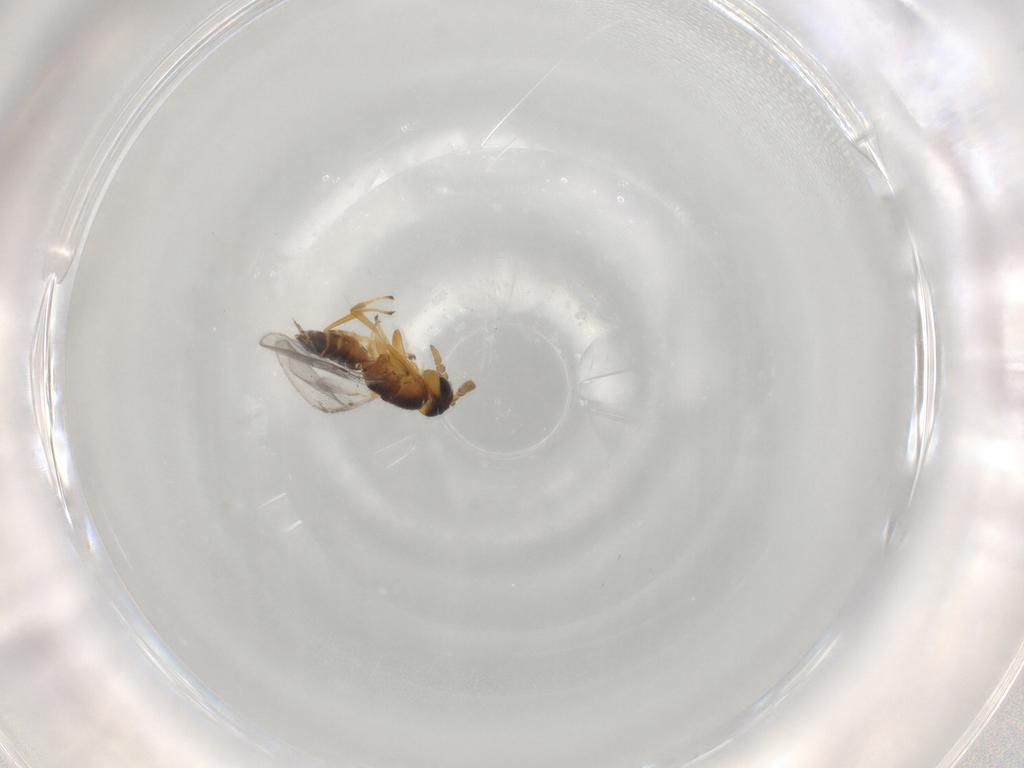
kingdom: Animalia
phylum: Arthropoda
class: Insecta
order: Hymenoptera
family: Encyrtidae
